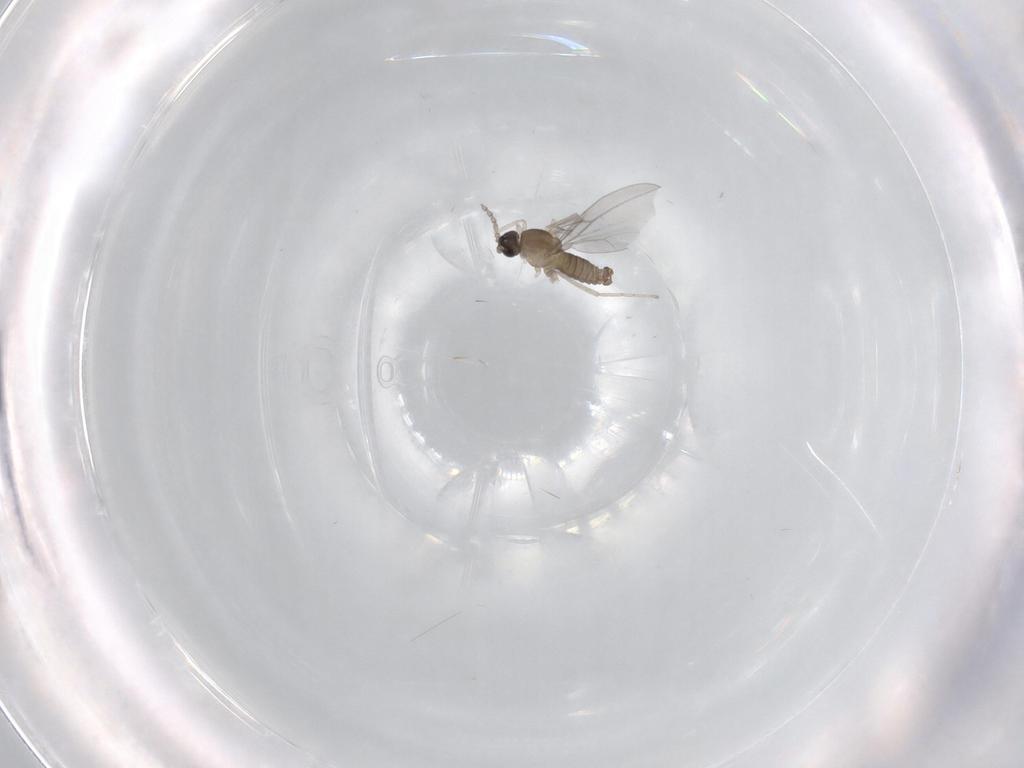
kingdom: Animalia
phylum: Arthropoda
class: Insecta
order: Diptera
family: Cecidomyiidae
